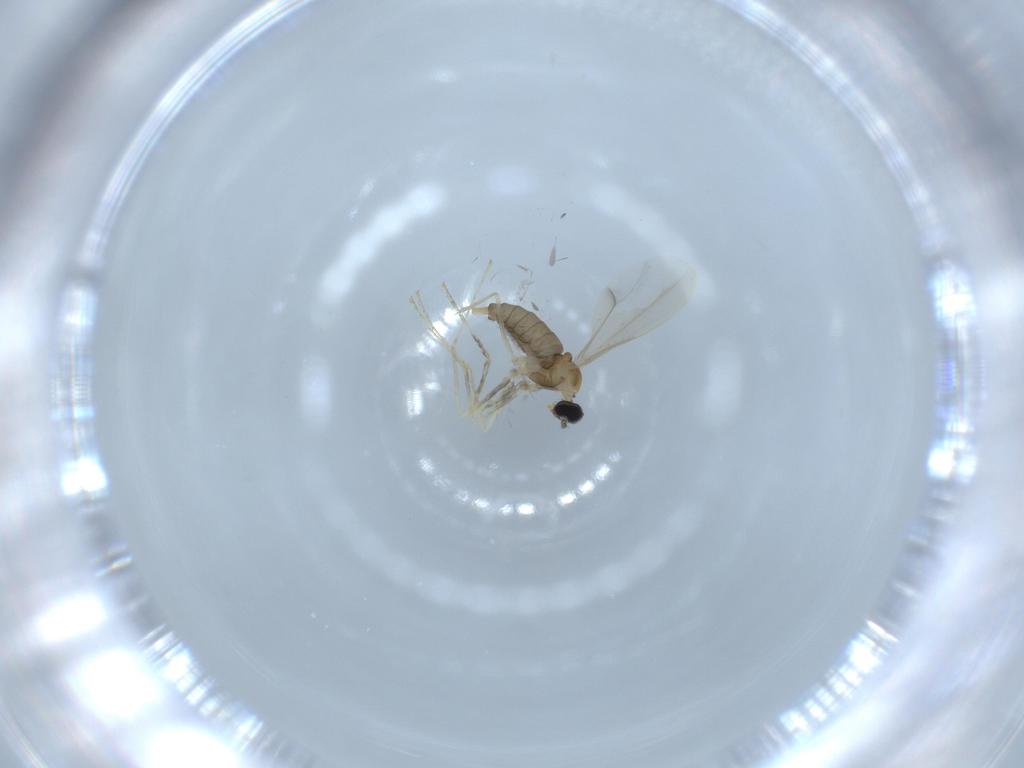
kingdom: Animalia
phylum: Arthropoda
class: Insecta
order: Diptera
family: Cecidomyiidae
